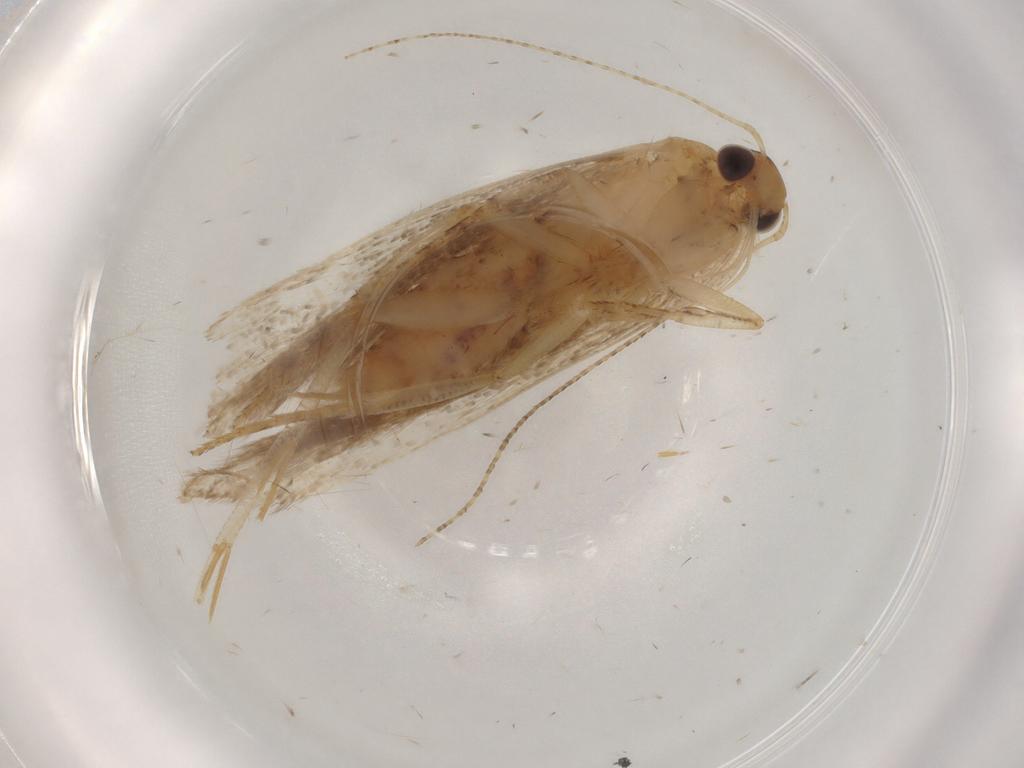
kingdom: Animalia
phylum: Arthropoda
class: Insecta
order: Lepidoptera
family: Gelechiidae
